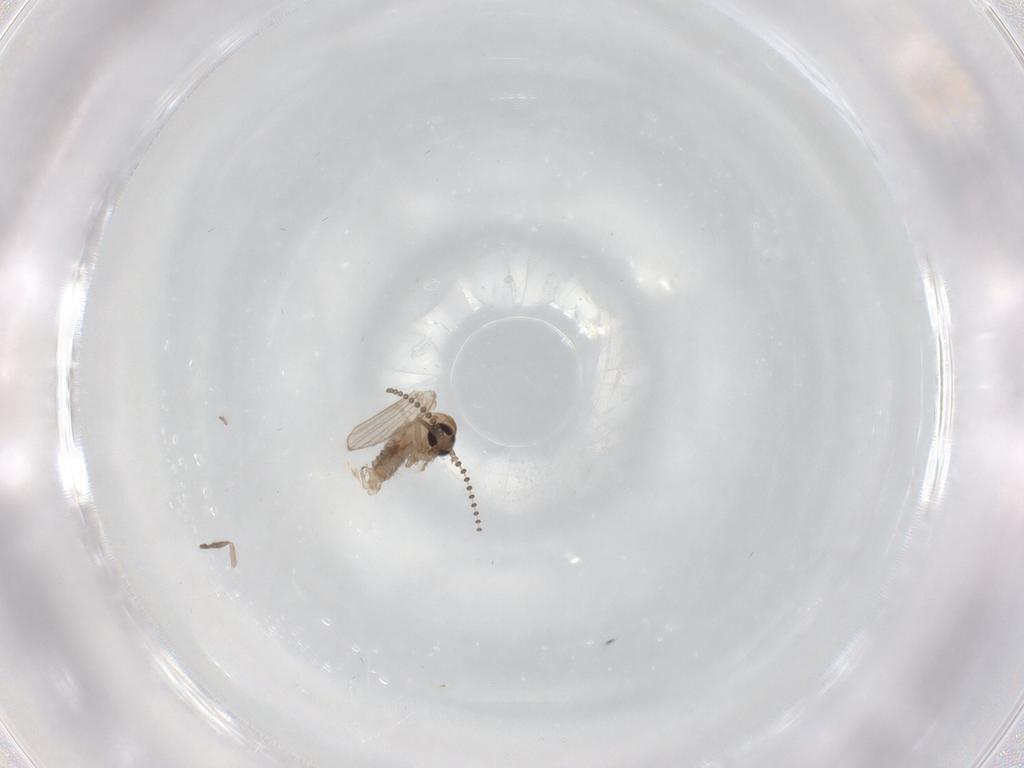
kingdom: Animalia
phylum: Arthropoda
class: Insecta
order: Diptera
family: Psychodidae
